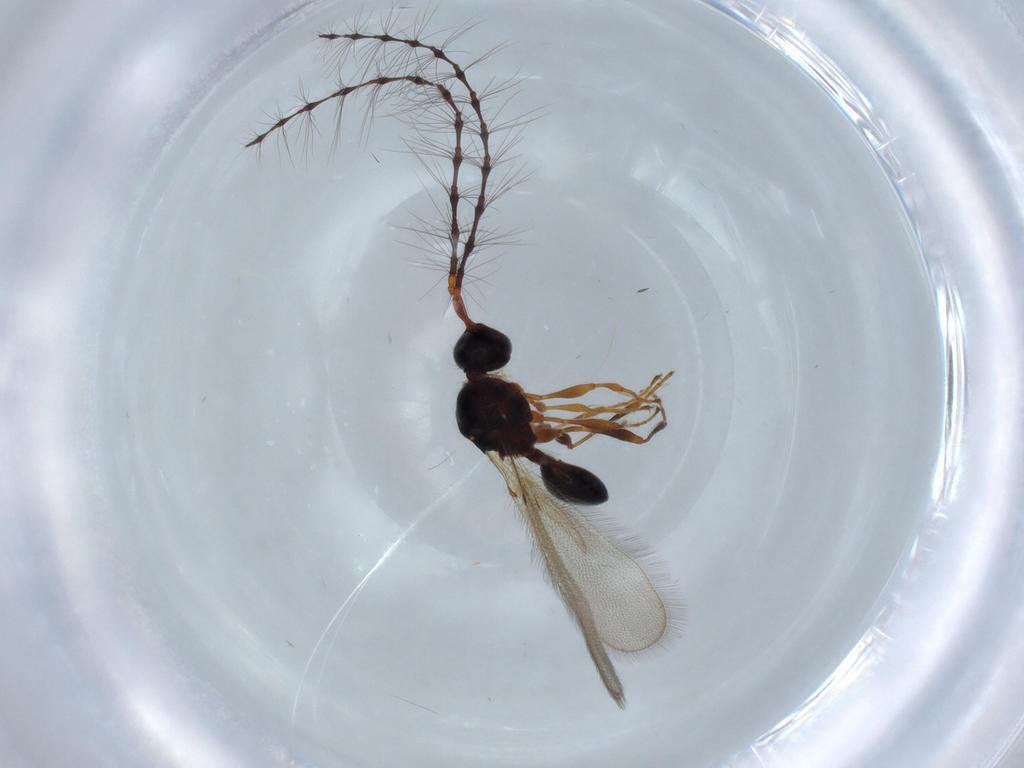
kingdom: Animalia
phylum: Arthropoda
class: Insecta
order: Hymenoptera
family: Diapriidae
